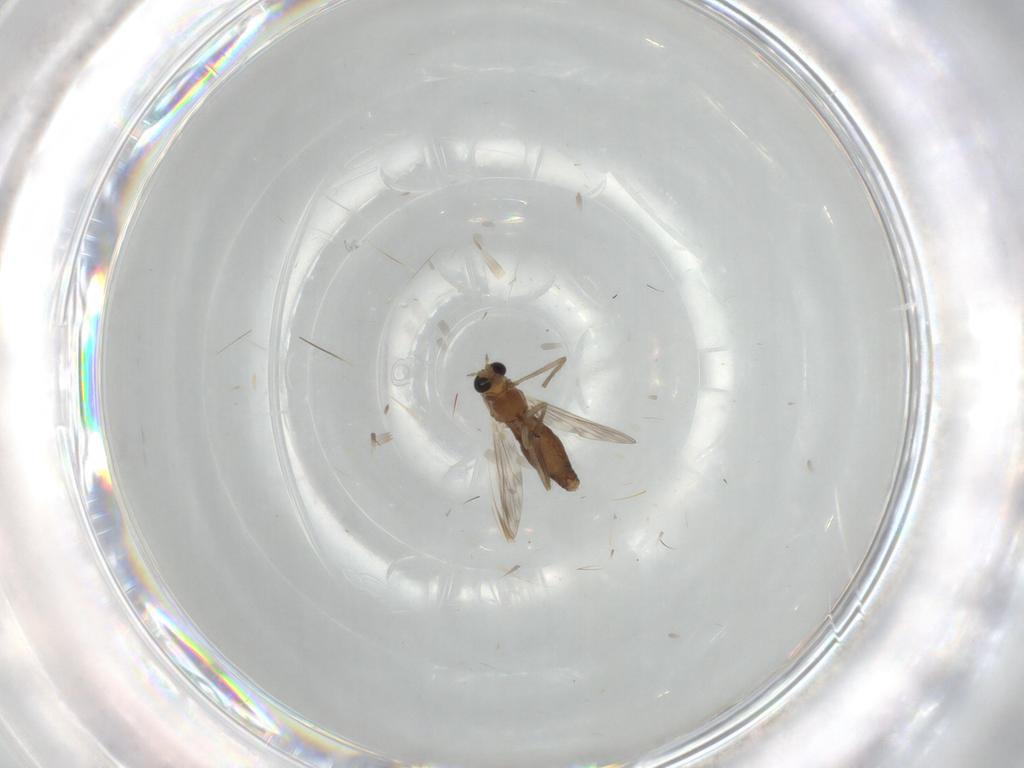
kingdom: Animalia
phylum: Arthropoda
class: Insecta
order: Diptera
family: Chironomidae
